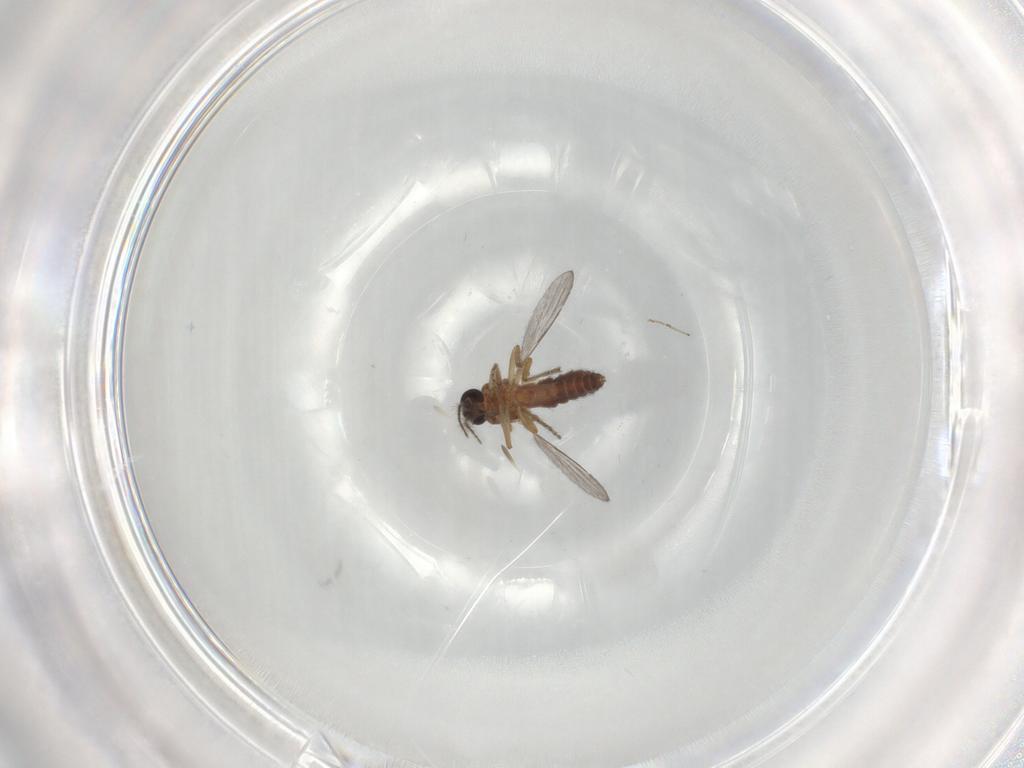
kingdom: Animalia
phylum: Arthropoda
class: Insecta
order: Diptera
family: Ceratopogonidae
